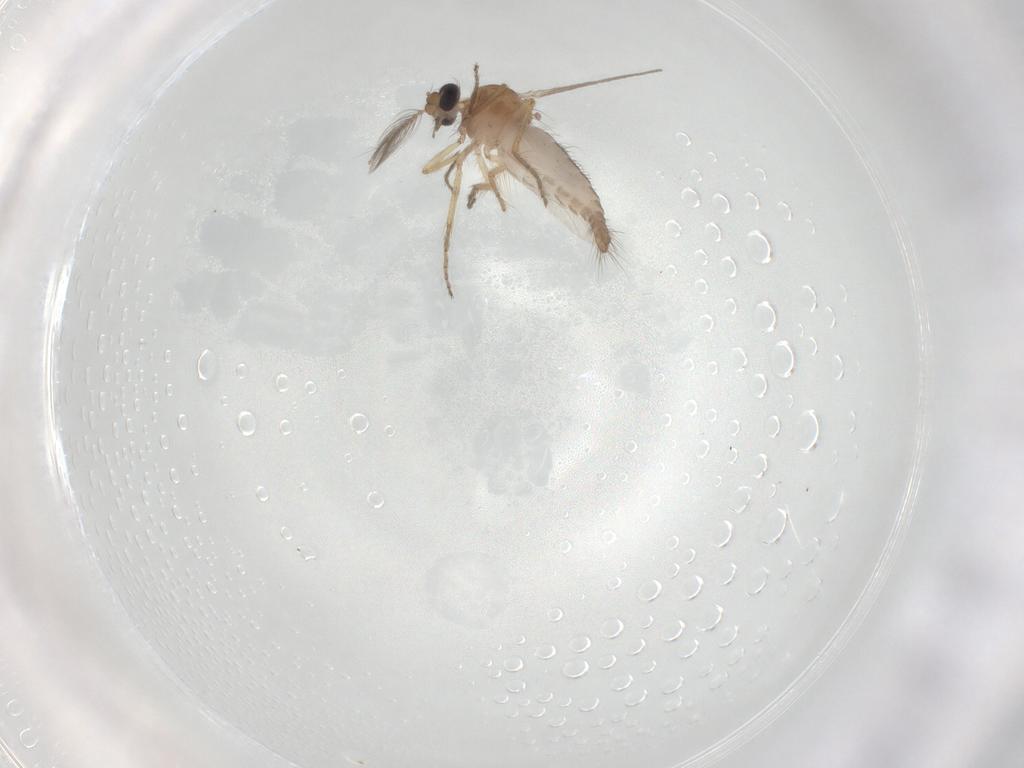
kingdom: Animalia
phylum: Arthropoda
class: Insecta
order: Diptera
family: Ceratopogonidae
